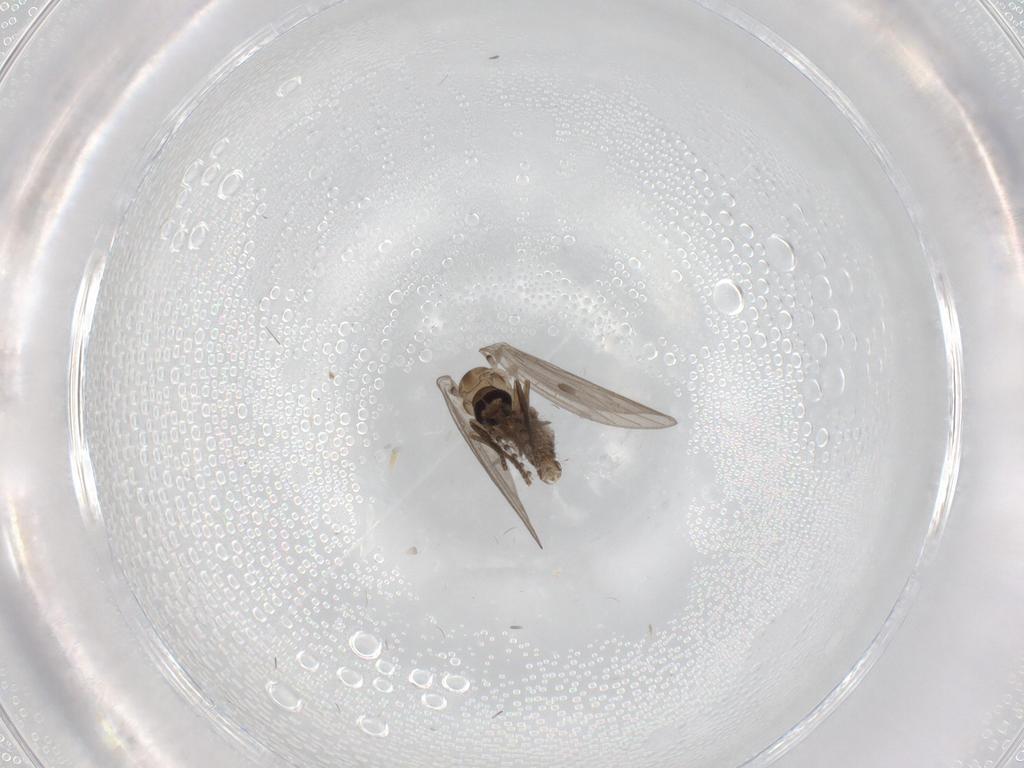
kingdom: Animalia
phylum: Arthropoda
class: Insecta
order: Diptera
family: Psychodidae
